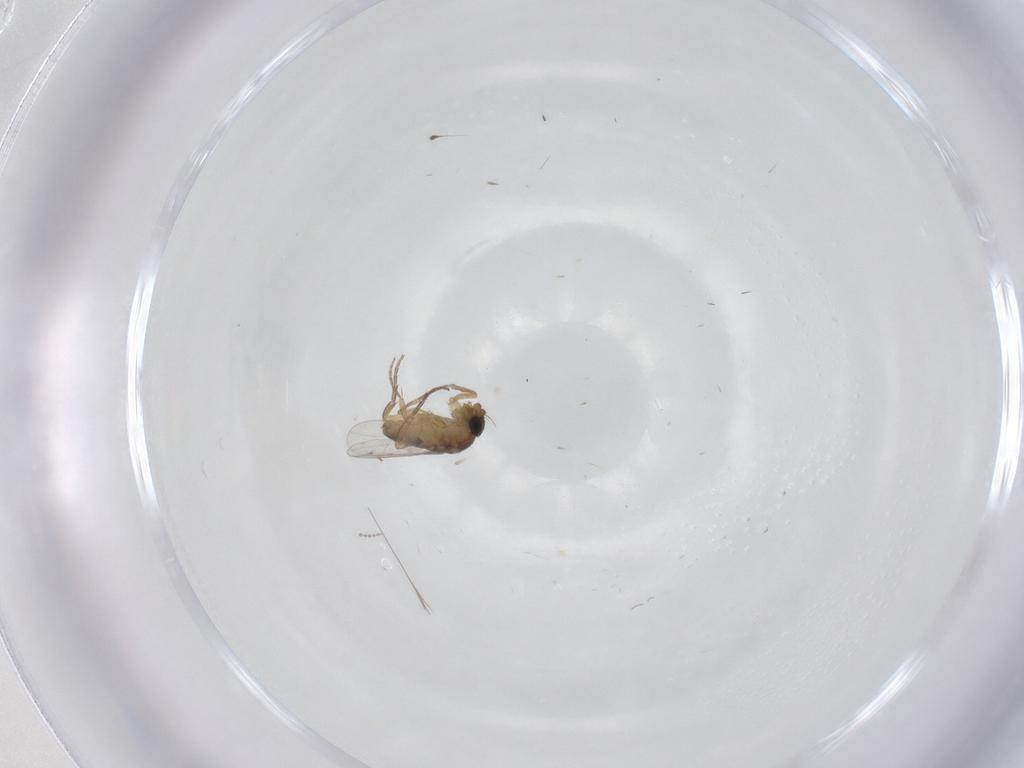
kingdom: Animalia
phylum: Arthropoda
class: Insecta
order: Diptera
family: Phoridae
